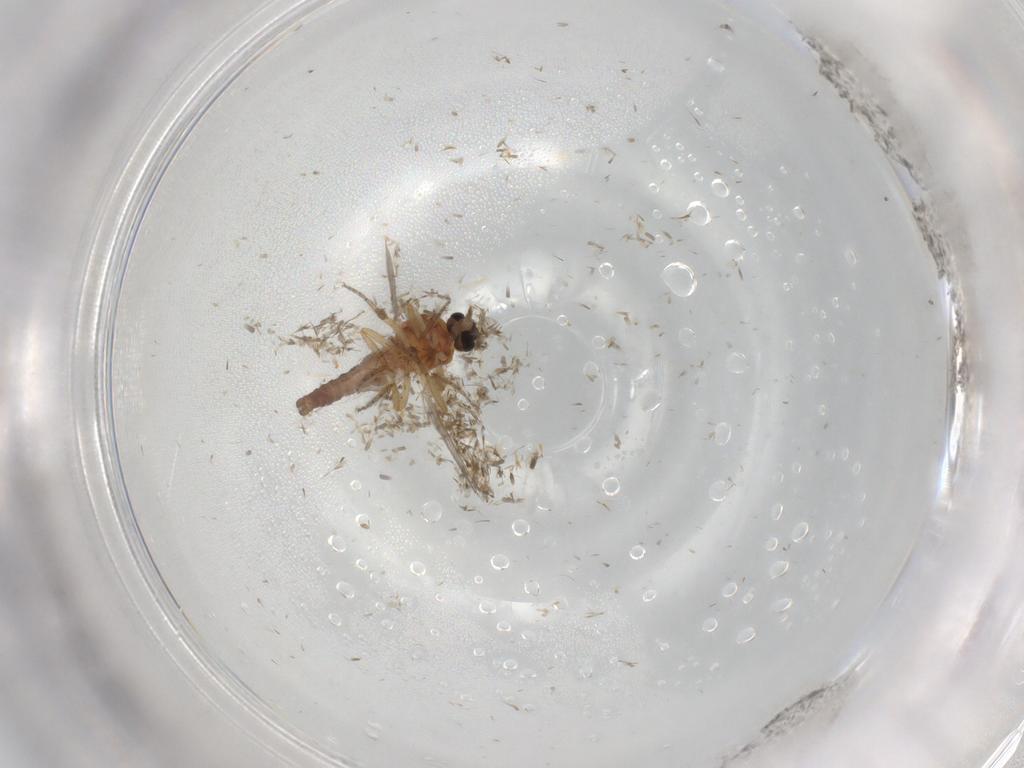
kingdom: Animalia
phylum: Arthropoda
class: Insecta
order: Diptera
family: Ceratopogonidae
